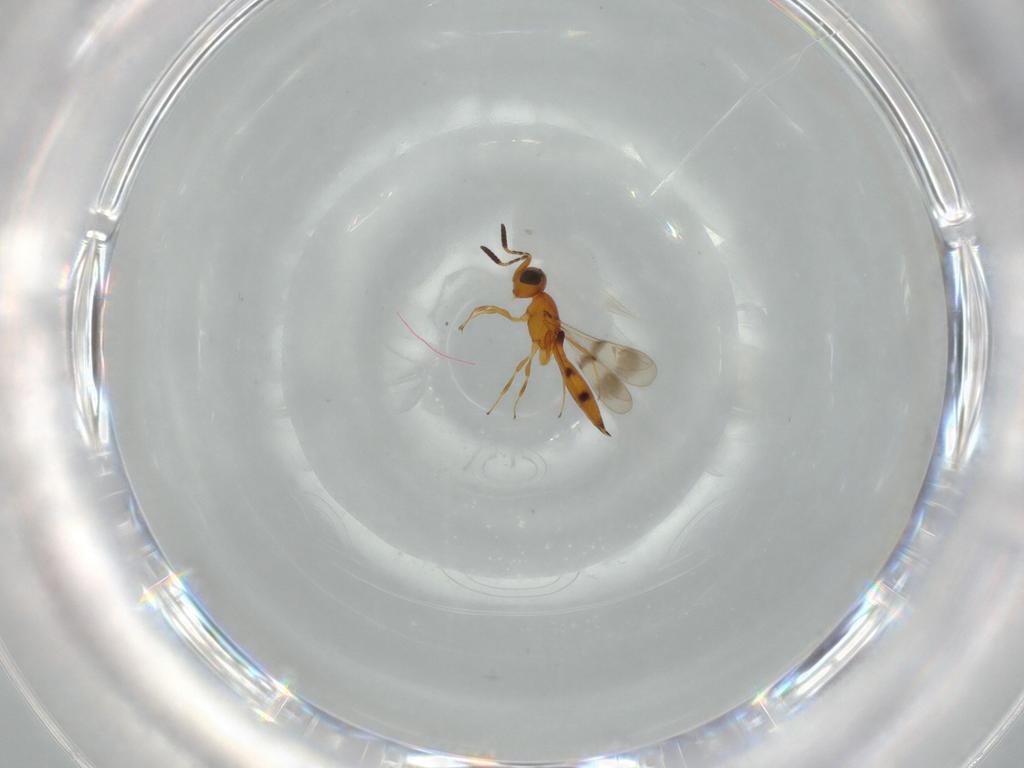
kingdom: Animalia
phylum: Arthropoda
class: Insecta
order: Hymenoptera
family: Scelionidae
